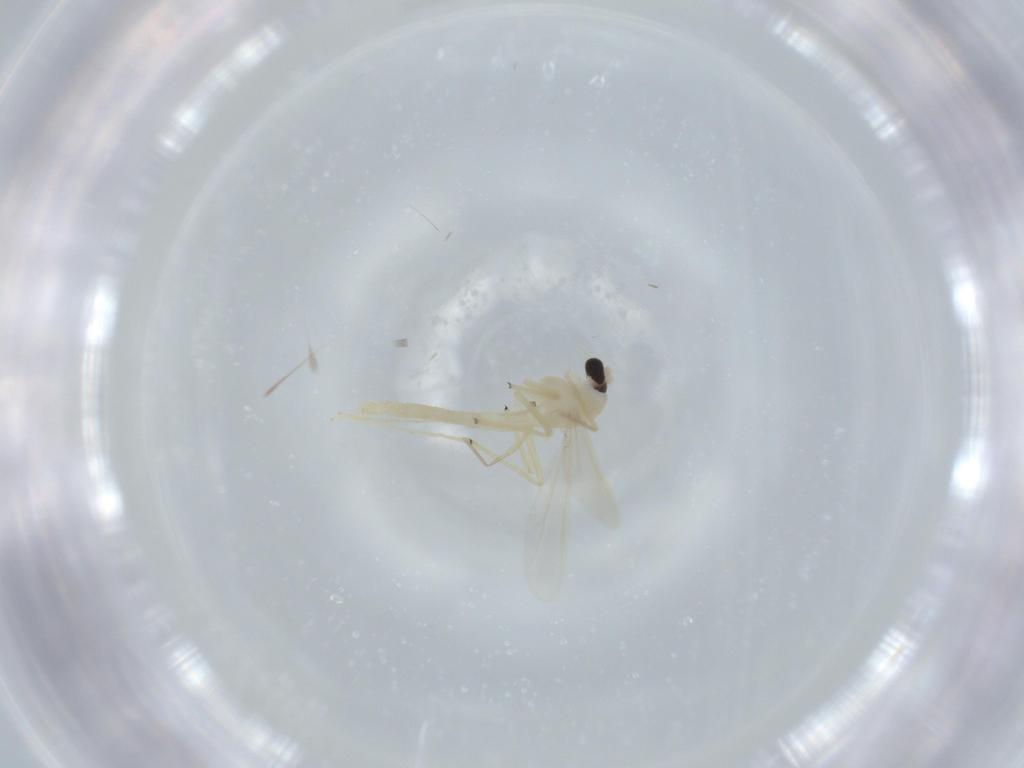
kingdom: Animalia
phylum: Arthropoda
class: Insecta
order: Diptera
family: Chironomidae
